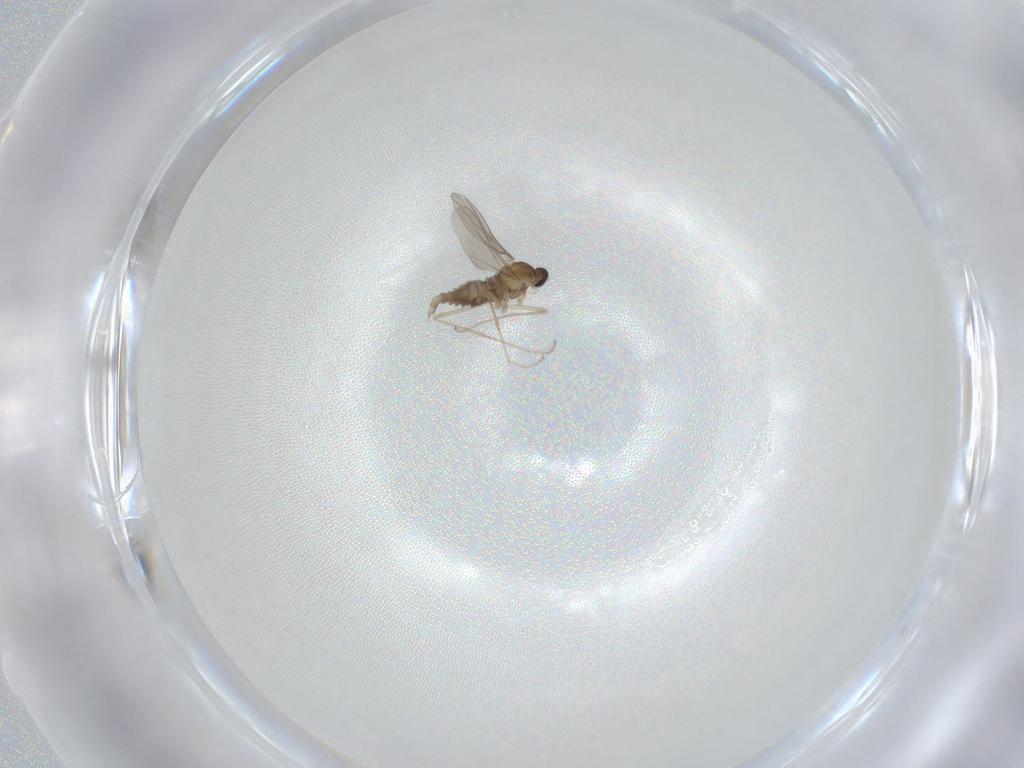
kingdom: Animalia
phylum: Arthropoda
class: Insecta
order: Diptera
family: Cecidomyiidae
